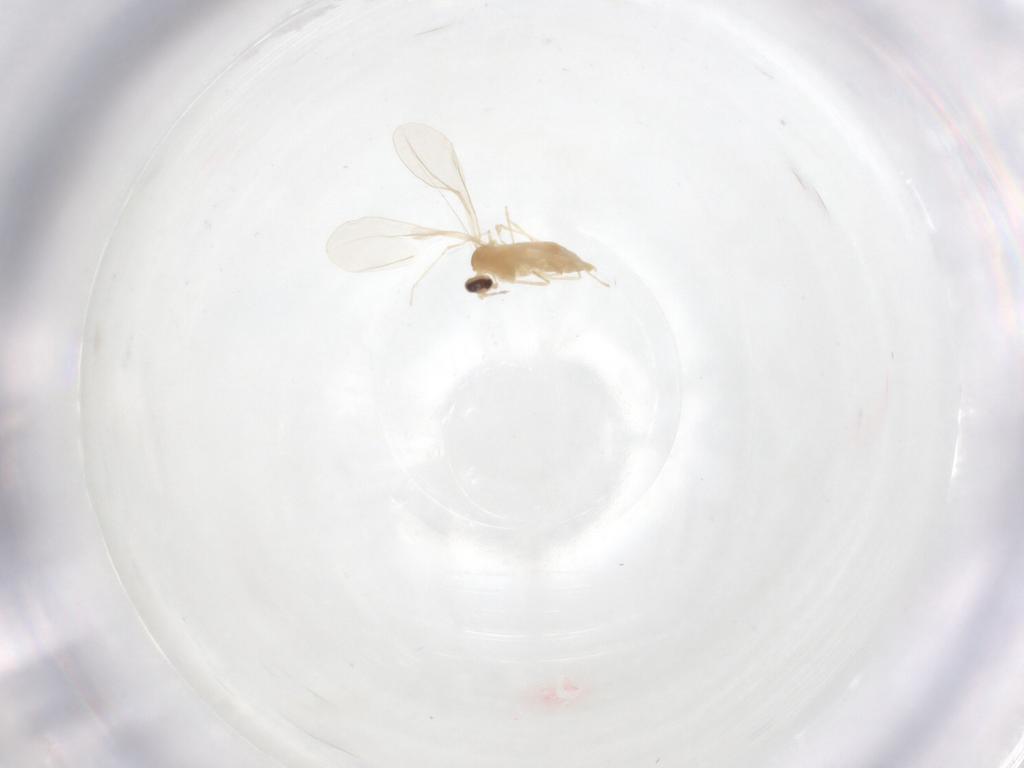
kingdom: Animalia
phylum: Arthropoda
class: Insecta
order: Diptera
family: Cecidomyiidae
